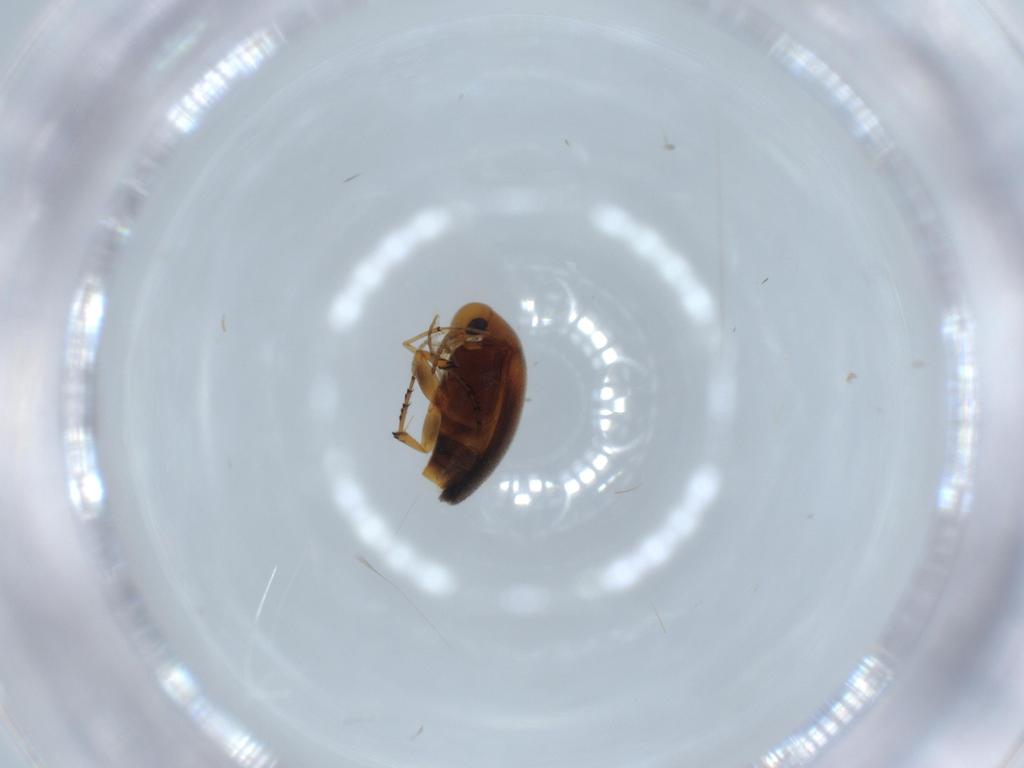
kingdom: Animalia
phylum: Arthropoda
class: Insecta
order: Coleoptera
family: Mordellidae
